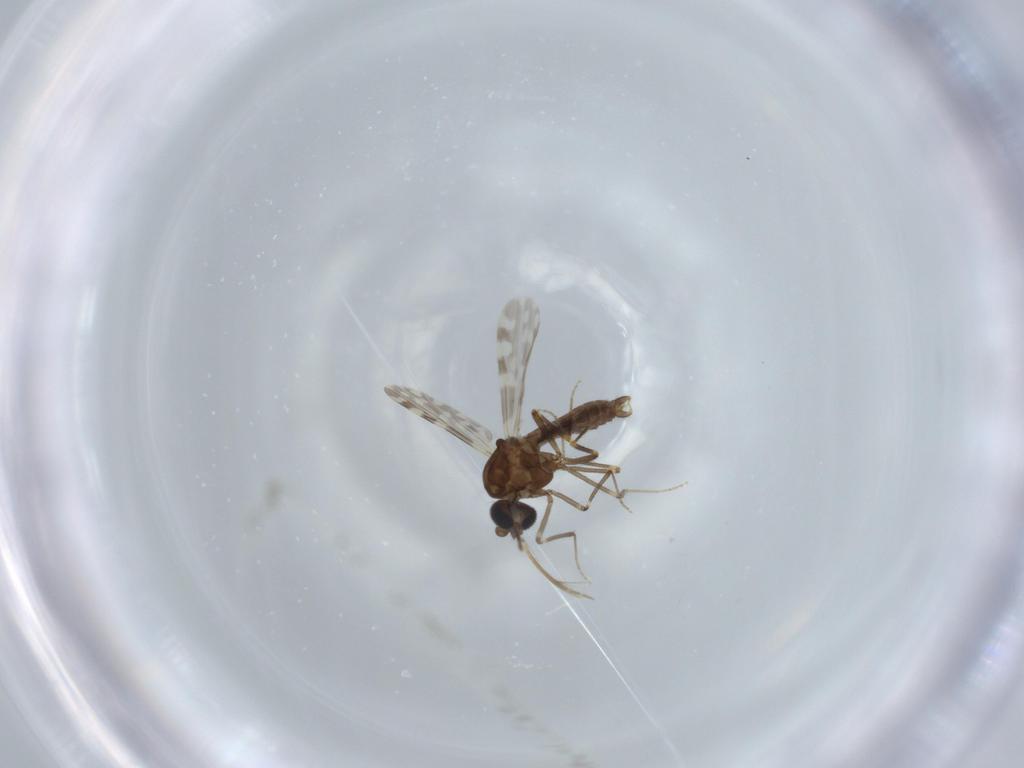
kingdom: Animalia
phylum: Arthropoda
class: Insecta
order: Diptera
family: Ceratopogonidae
